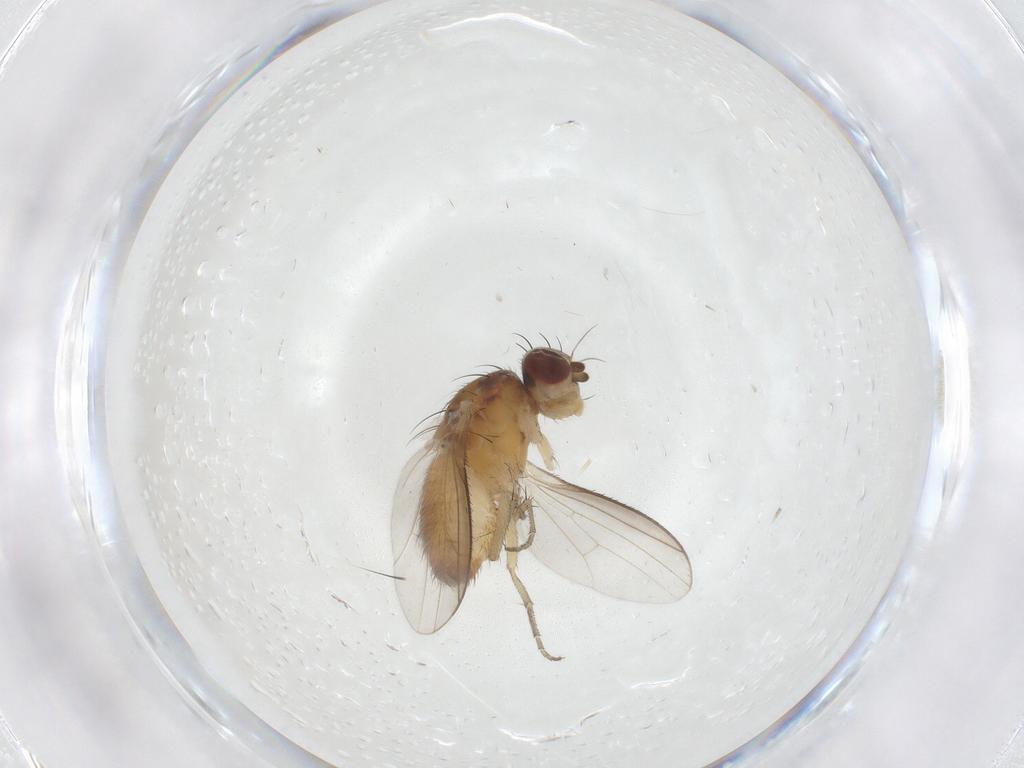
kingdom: Animalia
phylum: Arthropoda
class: Insecta
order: Diptera
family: Heleomyzidae
